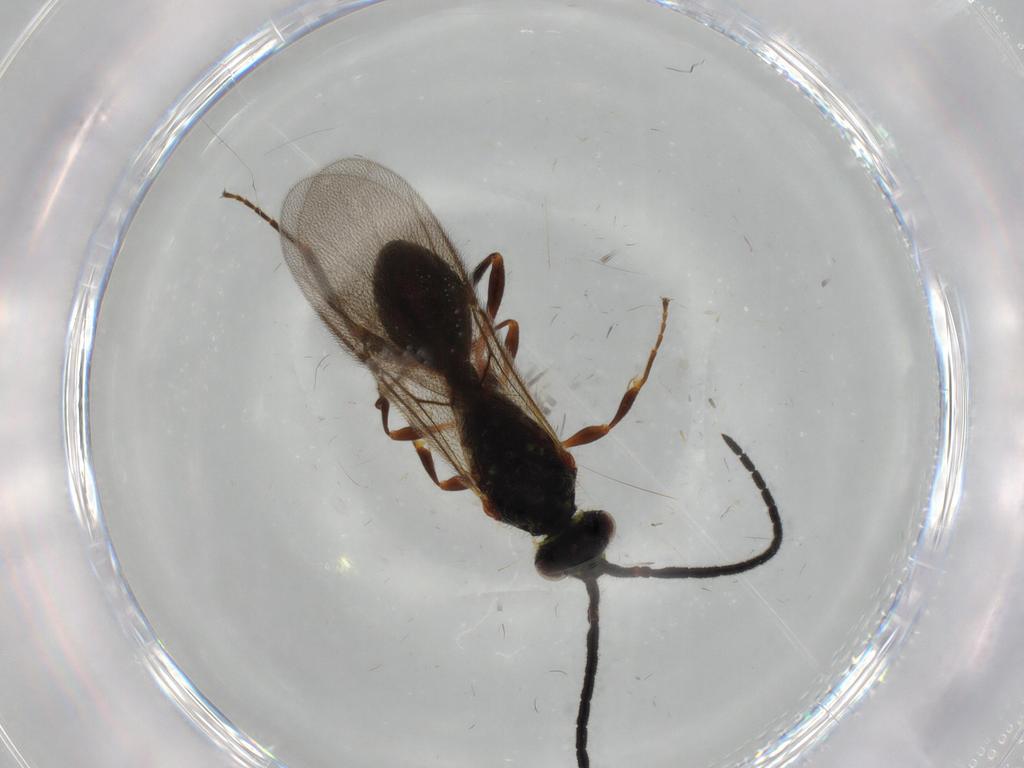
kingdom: Animalia
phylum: Arthropoda
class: Insecta
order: Hymenoptera
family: Diapriidae
